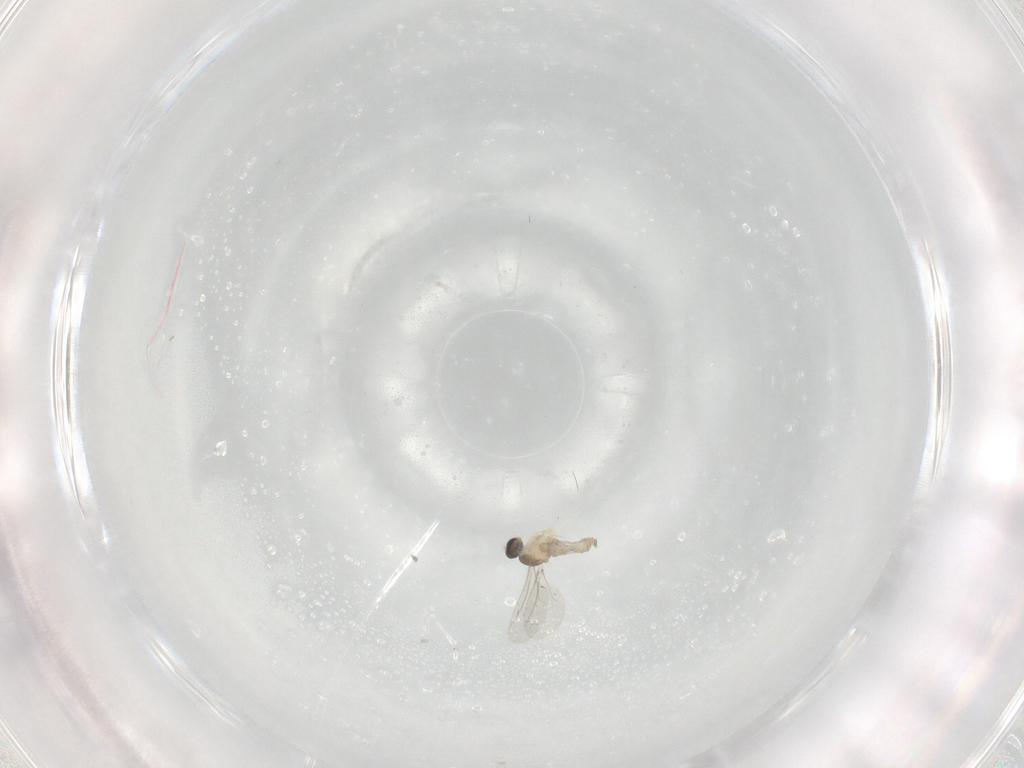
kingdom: Animalia
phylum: Arthropoda
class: Insecta
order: Diptera
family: Cecidomyiidae
